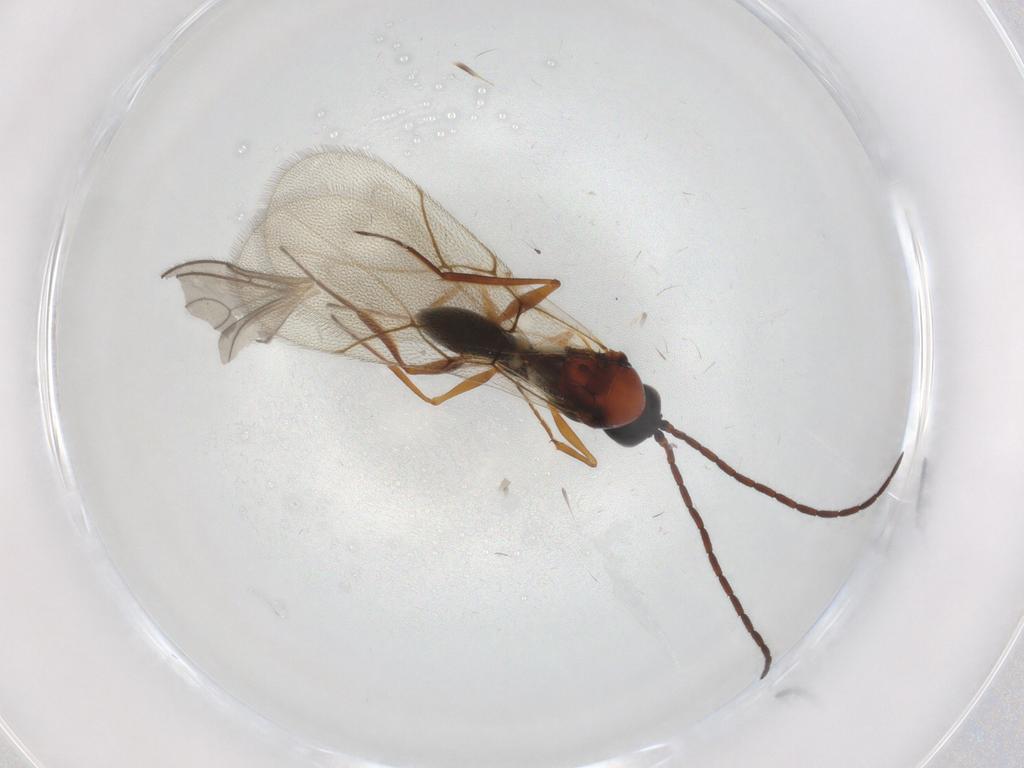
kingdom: Animalia
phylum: Arthropoda
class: Insecta
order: Hymenoptera
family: Figitidae
